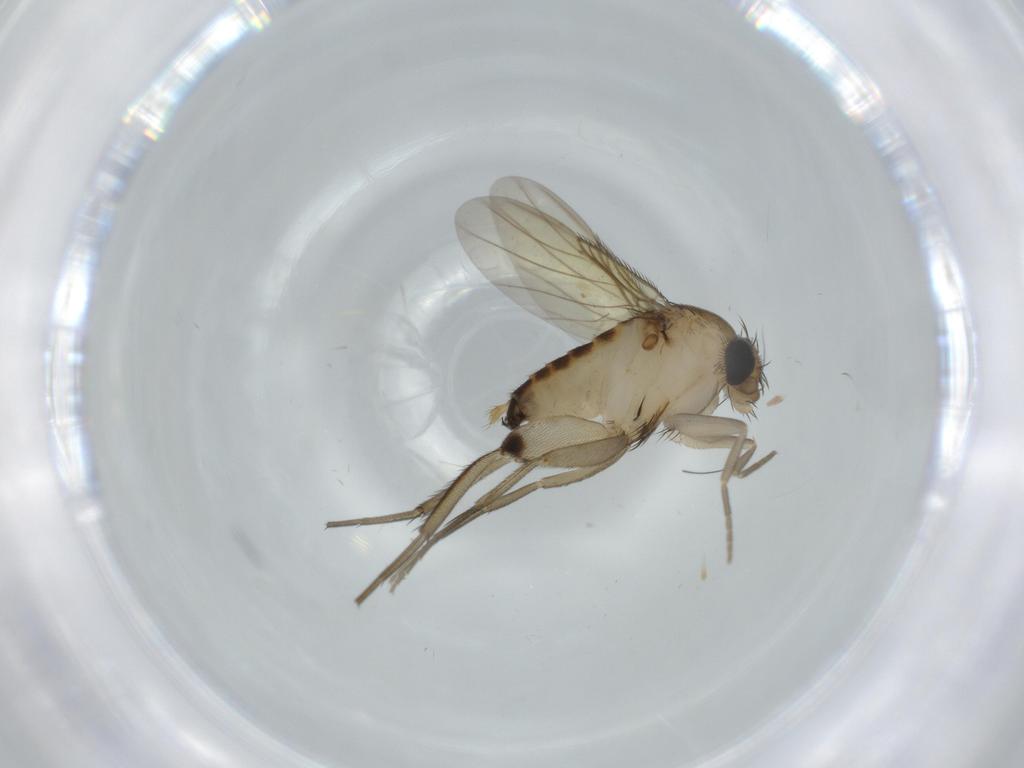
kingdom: Animalia
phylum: Arthropoda
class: Insecta
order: Diptera
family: Phoridae
